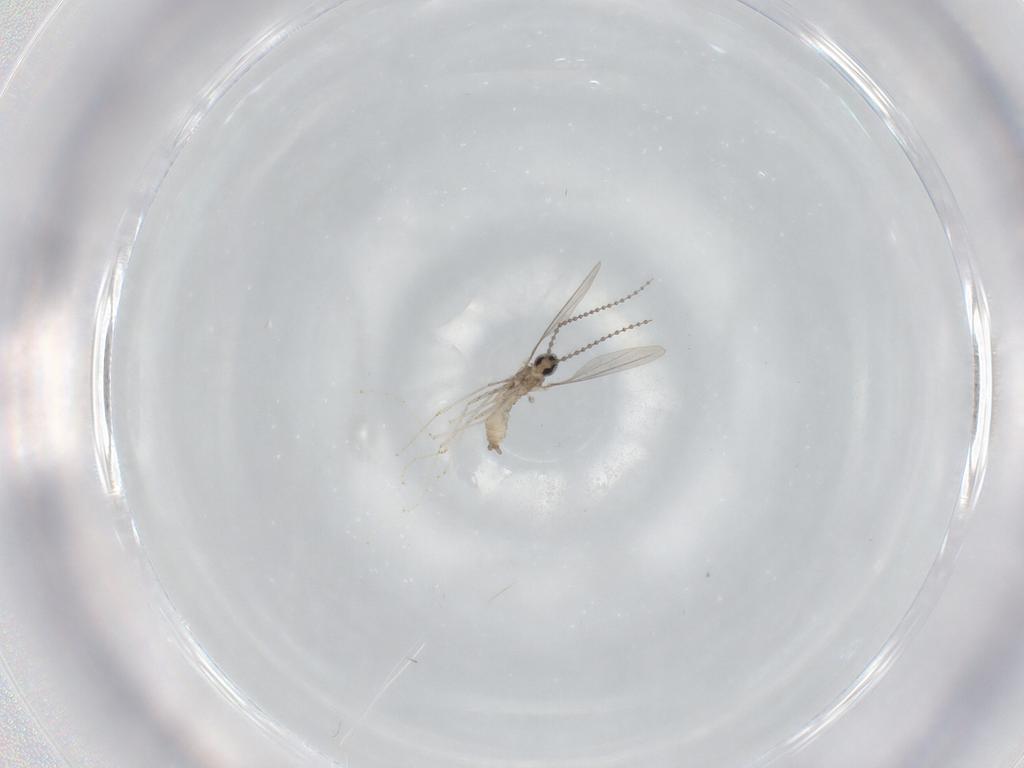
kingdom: Animalia
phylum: Arthropoda
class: Insecta
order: Diptera
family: Cecidomyiidae
